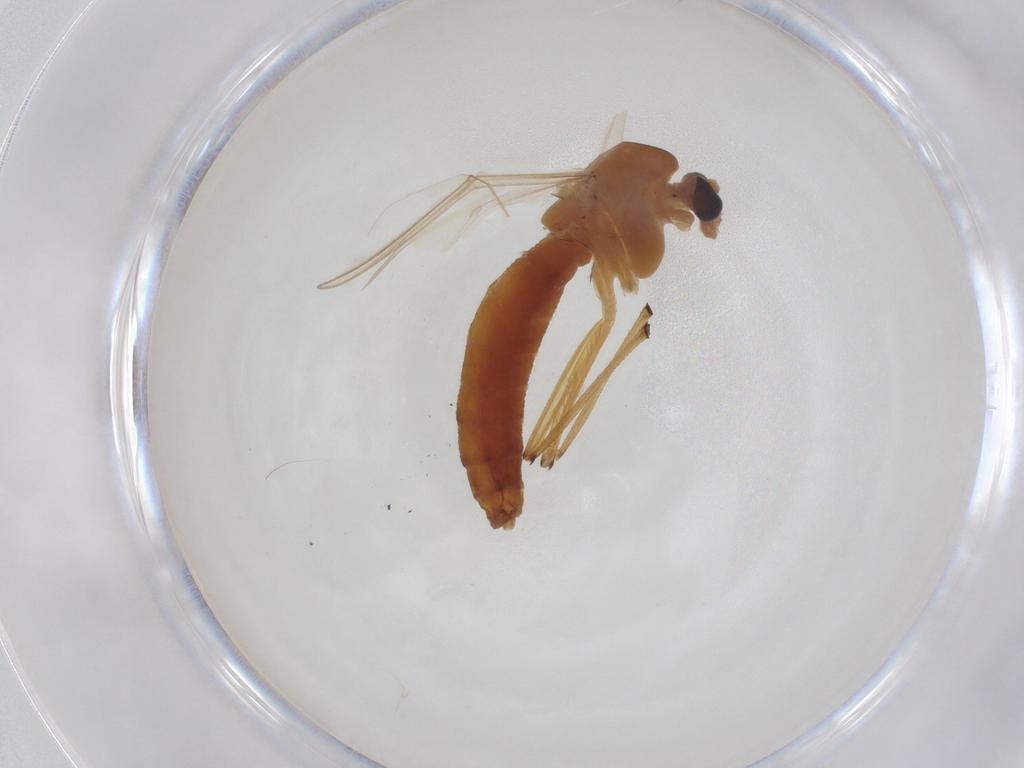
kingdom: Animalia
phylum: Arthropoda
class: Insecta
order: Diptera
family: Chironomidae
